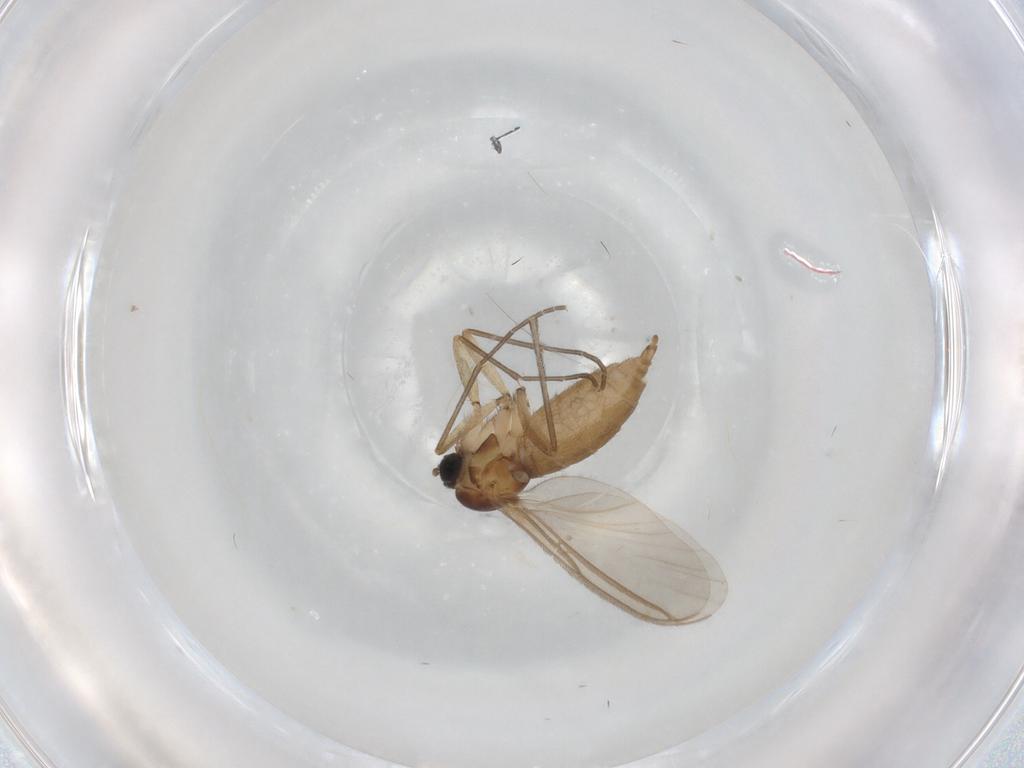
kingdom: Animalia
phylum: Arthropoda
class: Insecta
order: Diptera
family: Sciaridae
